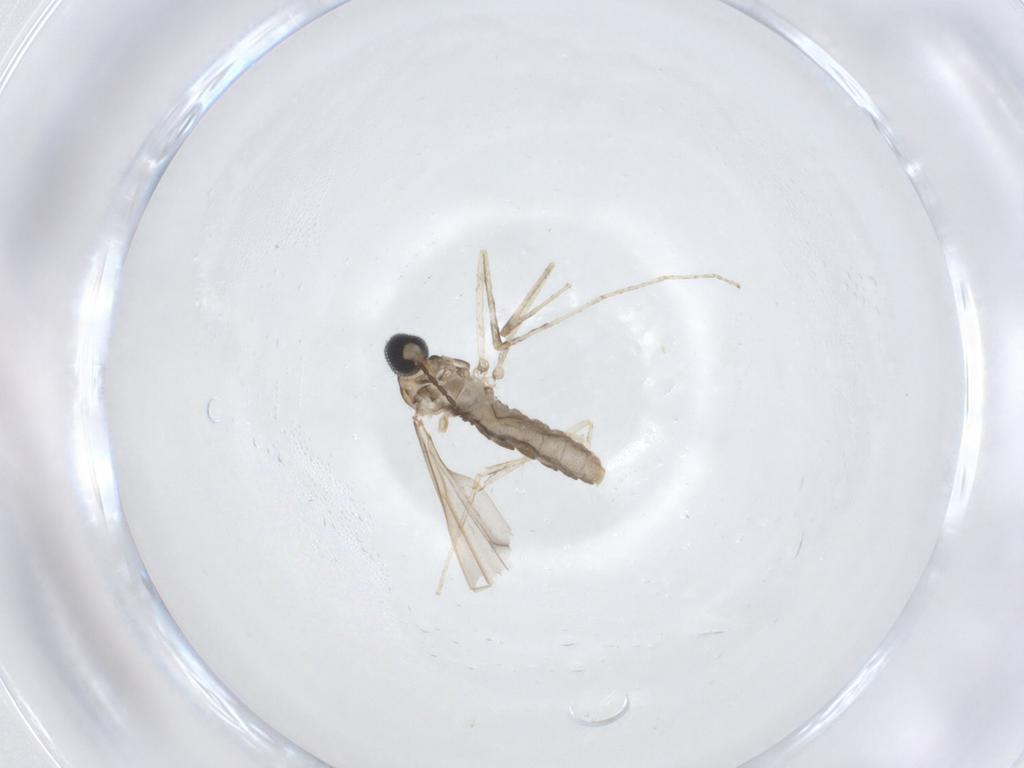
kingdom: Animalia
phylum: Arthropoda
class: Insecta
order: Diptera
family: Cecidomyiidae
